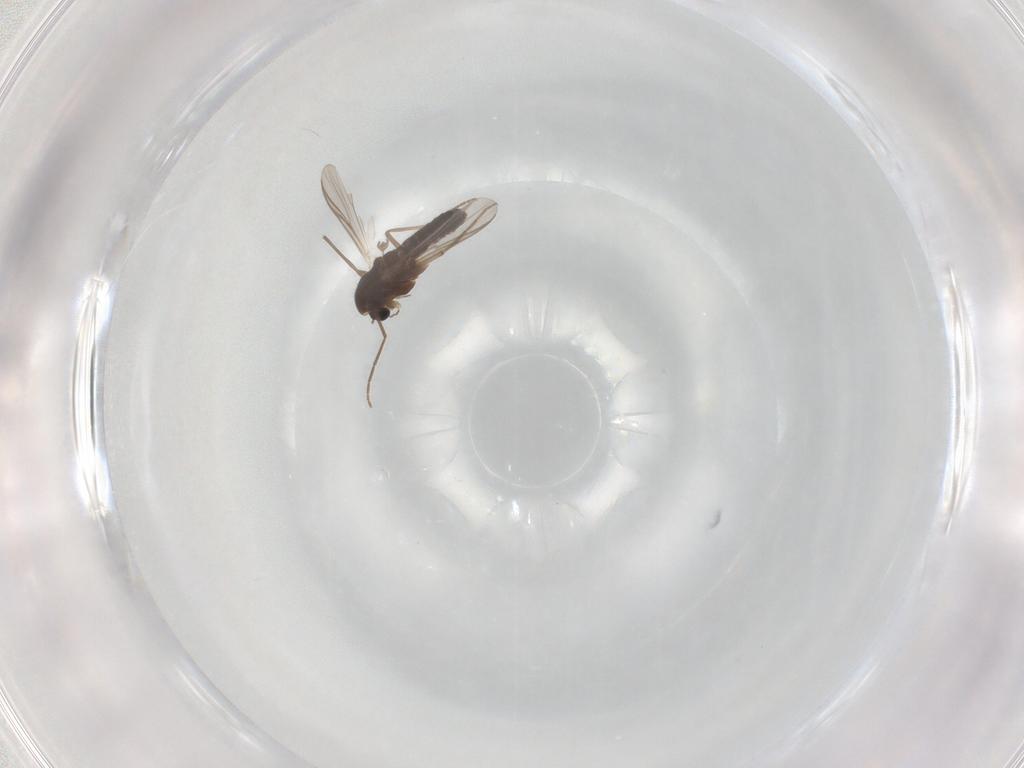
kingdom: Animalia
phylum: Arthropoda
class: Insecta
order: Diptera
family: Chironomidae
